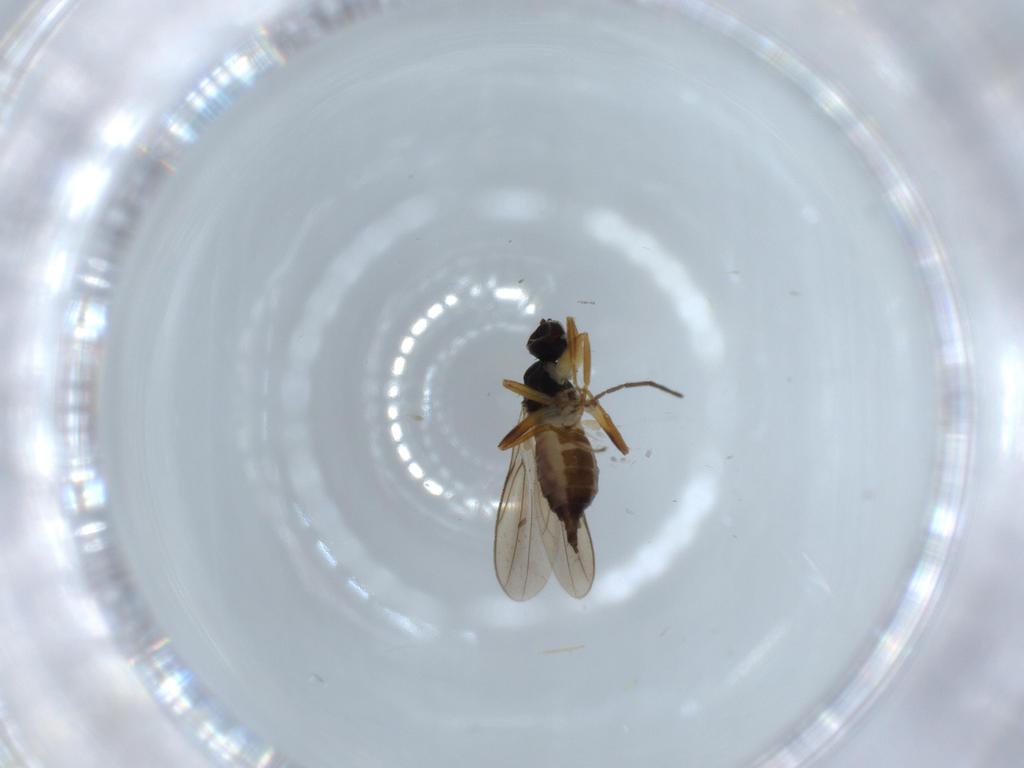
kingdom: Animalia
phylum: Arthropoda
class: Insecta
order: Diptera
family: Hybotidae
